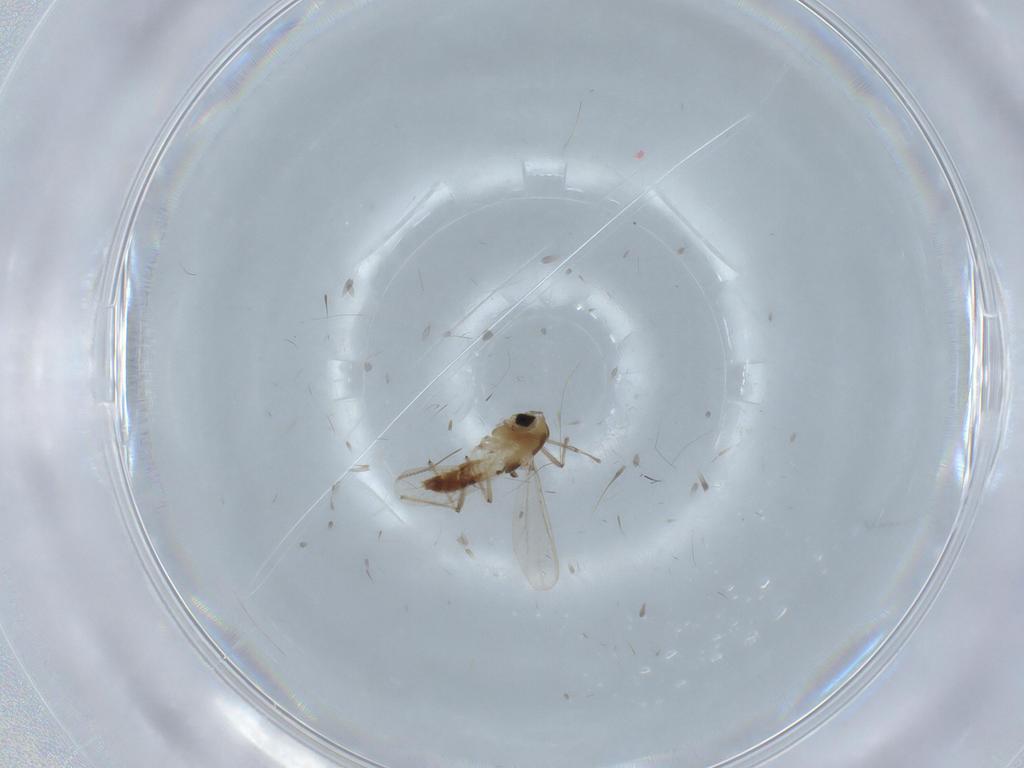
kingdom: Animalia
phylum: Arthropoda
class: Insecta
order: Diptera
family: Chironomidae
